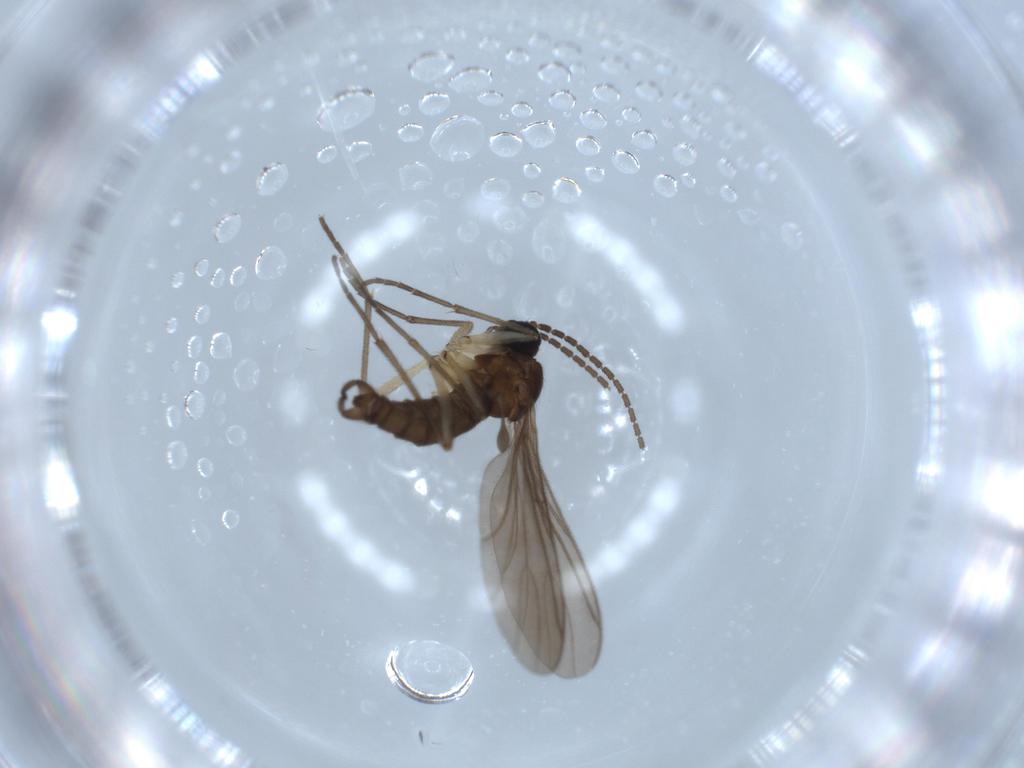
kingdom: Animalia
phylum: Arthropoda
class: Insecta
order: Diptera
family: Sciaridae
